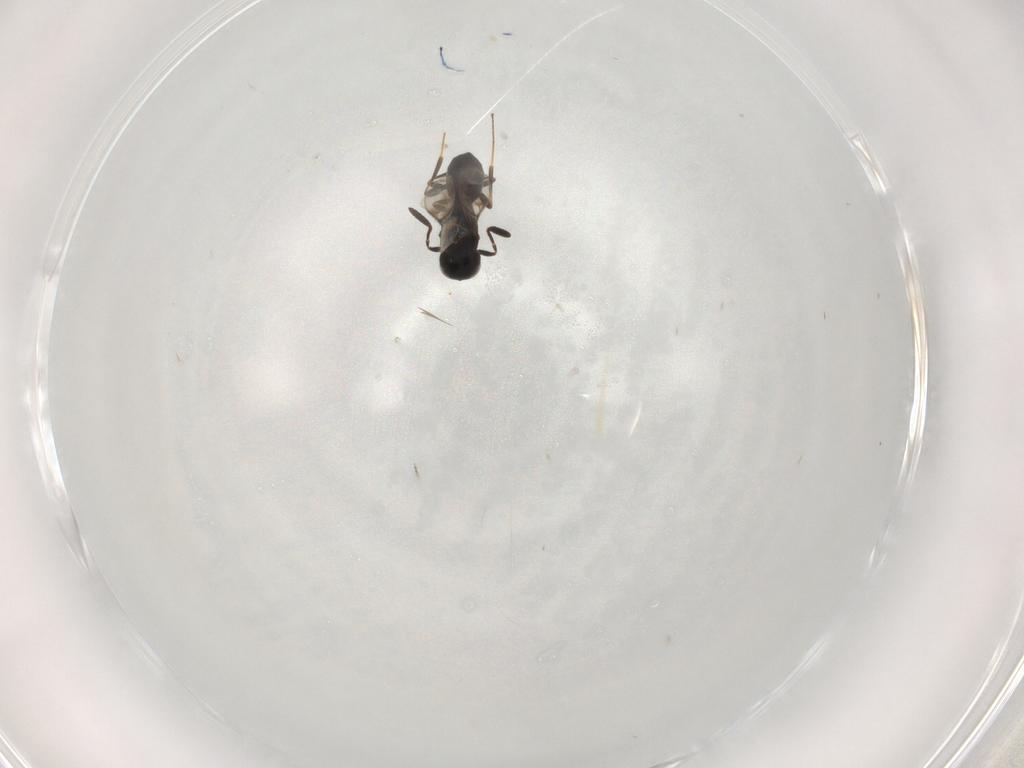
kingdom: Animalia
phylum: Arthropoda
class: Insecta
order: Hymenoptera
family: Scelionidae
